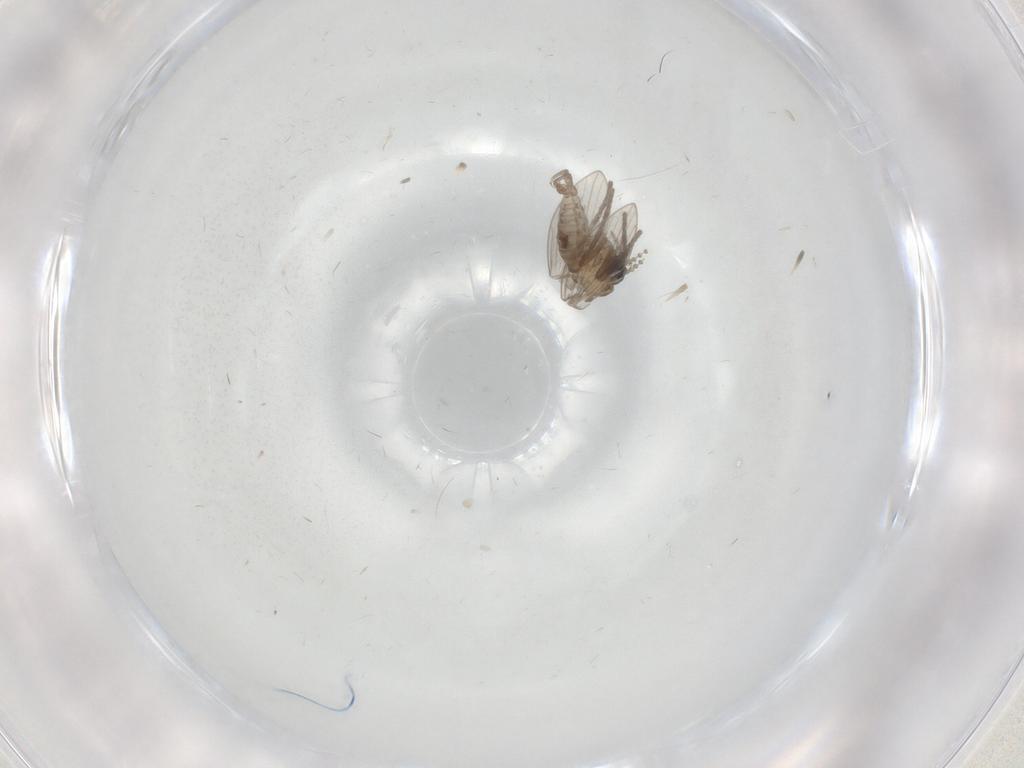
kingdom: Animalia
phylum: Arthropoda
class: Insecta
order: Diptera
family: Psychodidae
